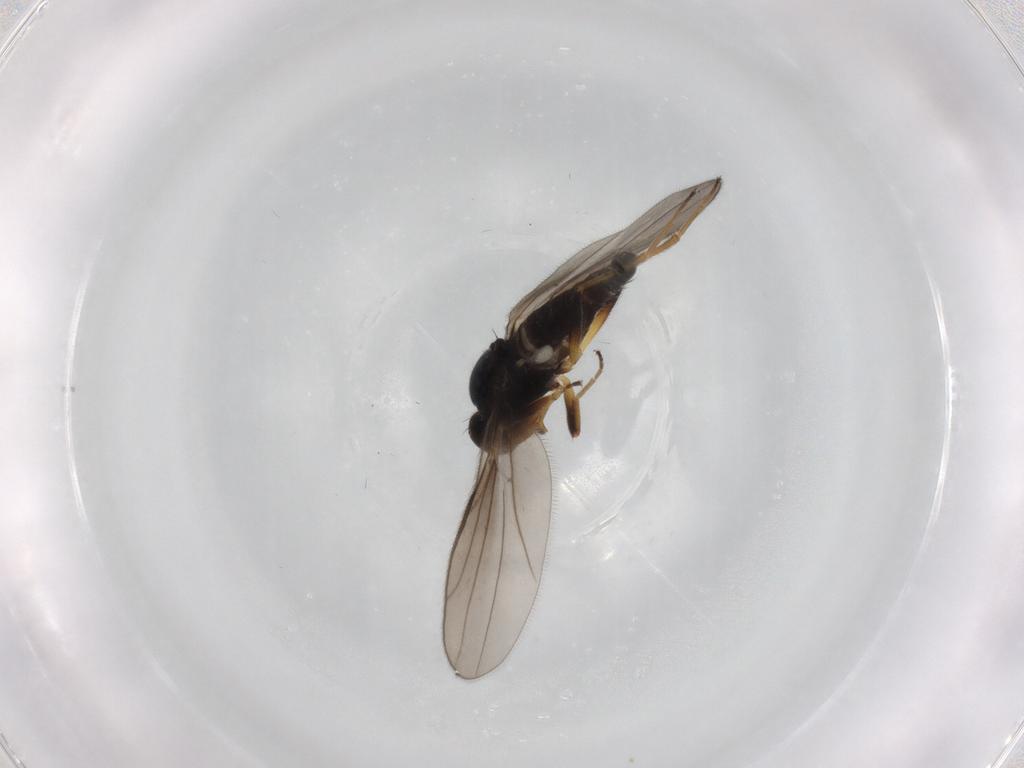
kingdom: Animalia
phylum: Arthropoda
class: Insecta
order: Diptera
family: Hybotidae
